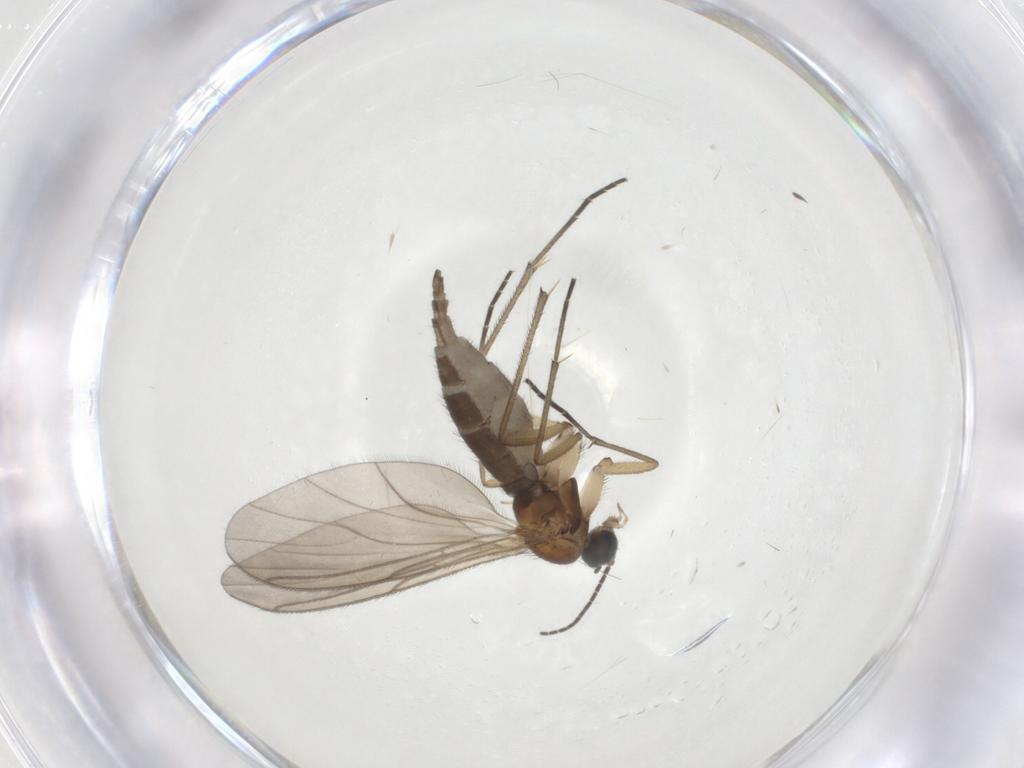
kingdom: Animalia
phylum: Arthropoda
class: Insecta
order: Diptera
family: Sciaridae
